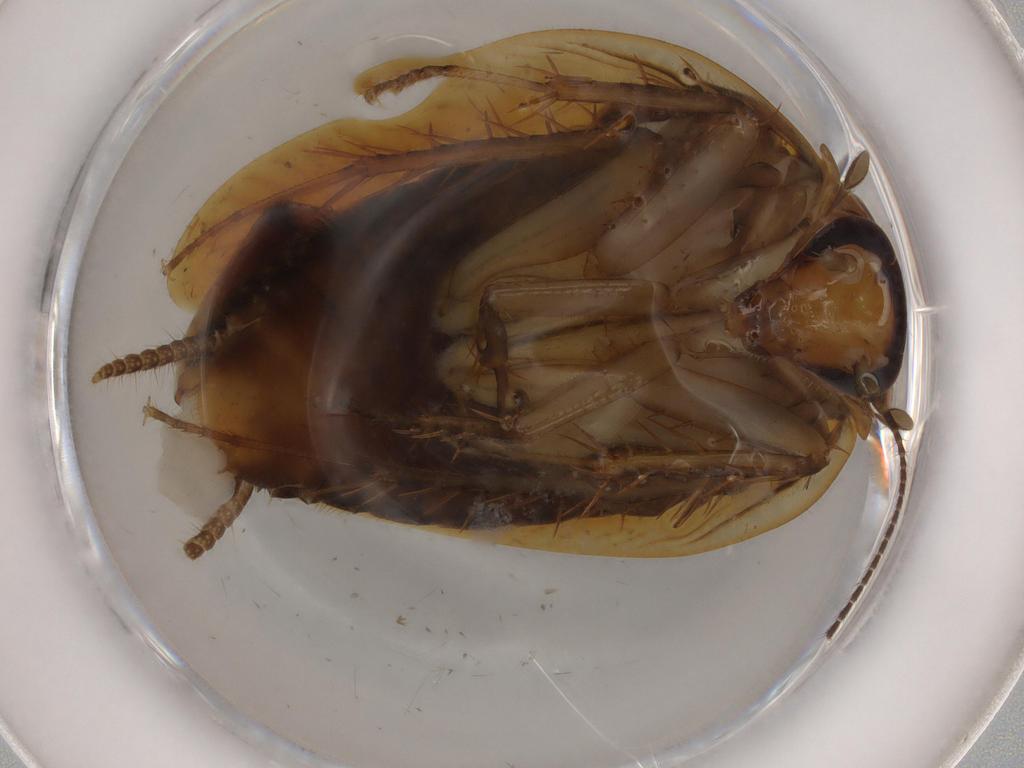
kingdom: Animalia
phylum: Arthropoda
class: Insecta
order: Blattodea
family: Ectobiidae
